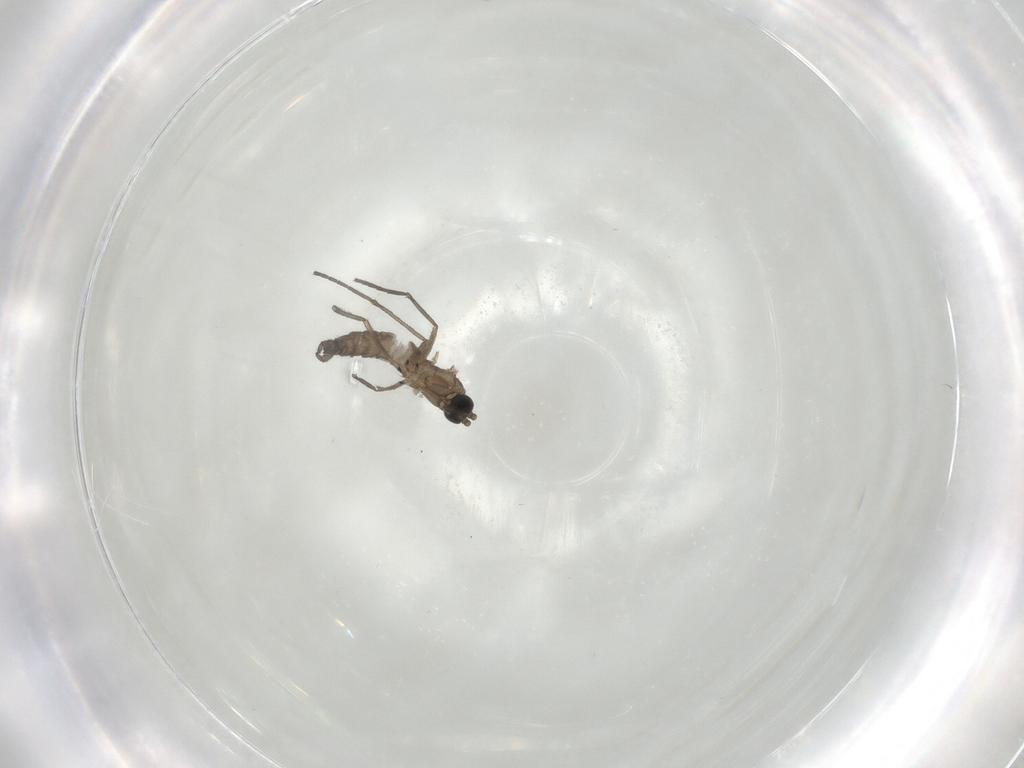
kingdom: Animalia
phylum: Arthropoda
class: Insecta
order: Diptera
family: Sciaridae
